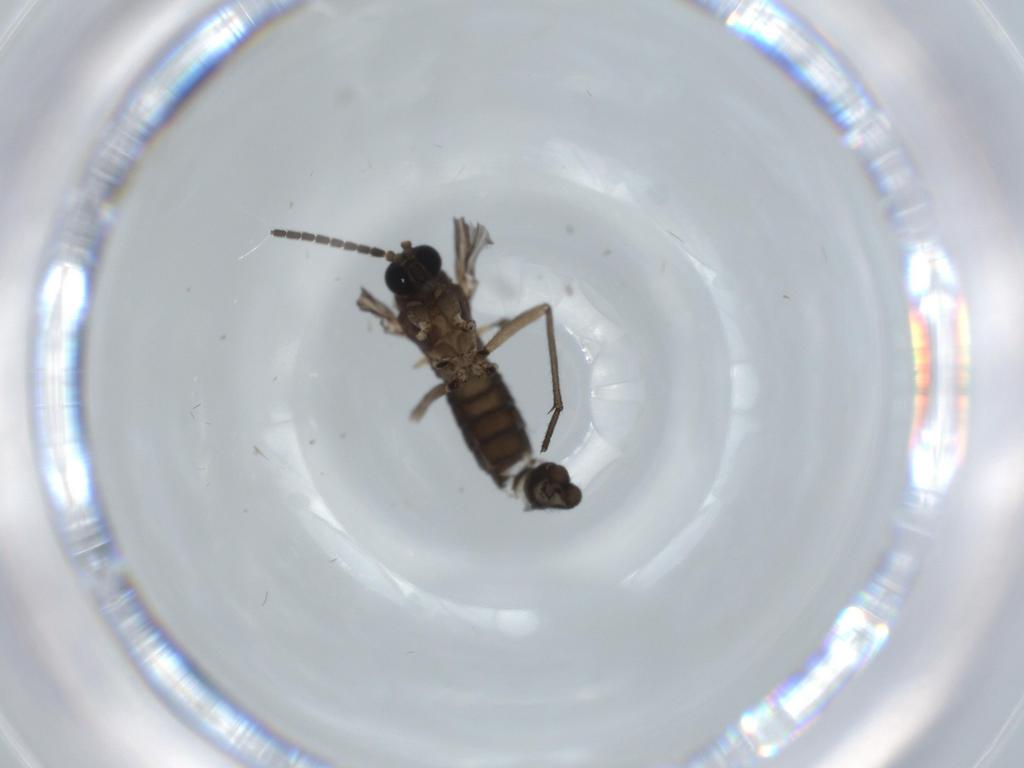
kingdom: Animalia
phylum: Arthropoda
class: Insecta
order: Diptera
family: Sciaridae
